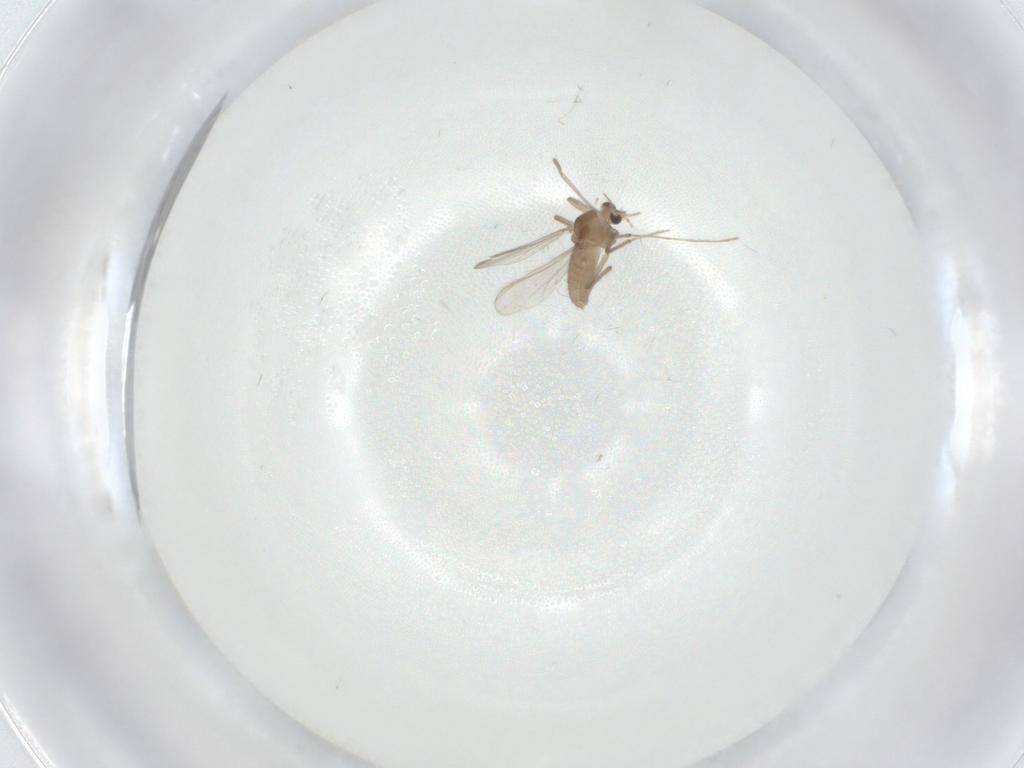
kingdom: Animalia
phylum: Arthropoda
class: Insecta
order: Diptera
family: Chironomidae
